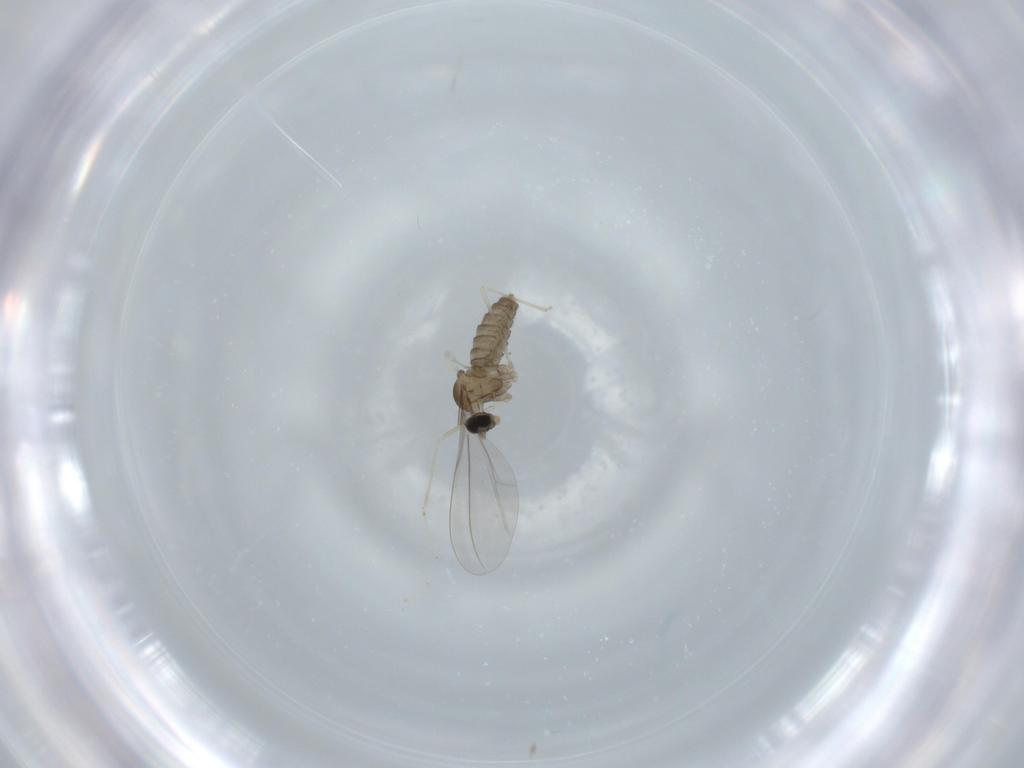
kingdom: Animalia
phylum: Arthropoda
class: Insecta
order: Diptera
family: Cecidomyiidae
